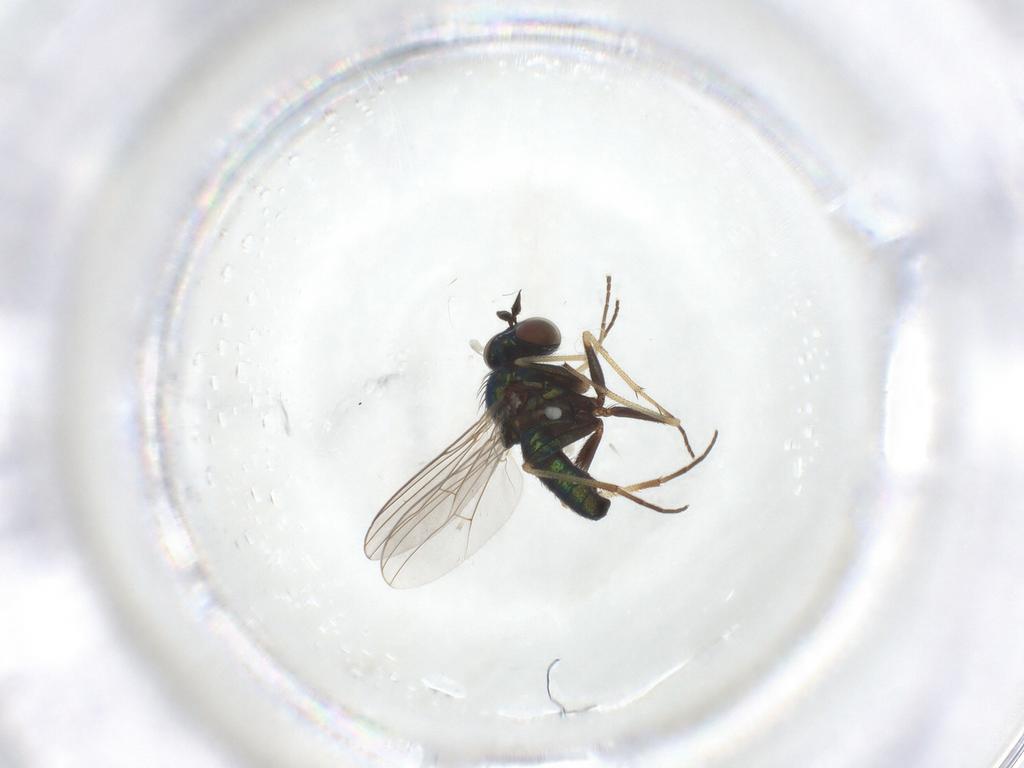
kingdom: Animalia
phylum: Arthropoda
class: Insecta
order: Diptera
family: Dolichopodidae
